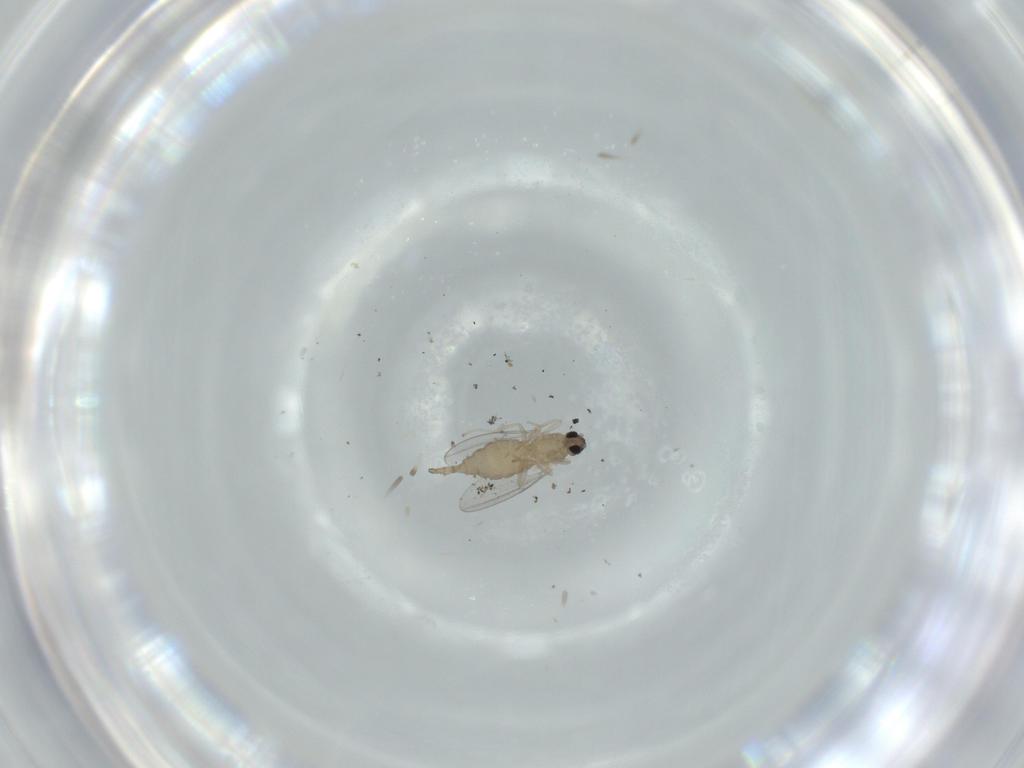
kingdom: Animalia
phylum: Arthropoda
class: Insecta
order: Diptera
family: Cecidomyiidae
